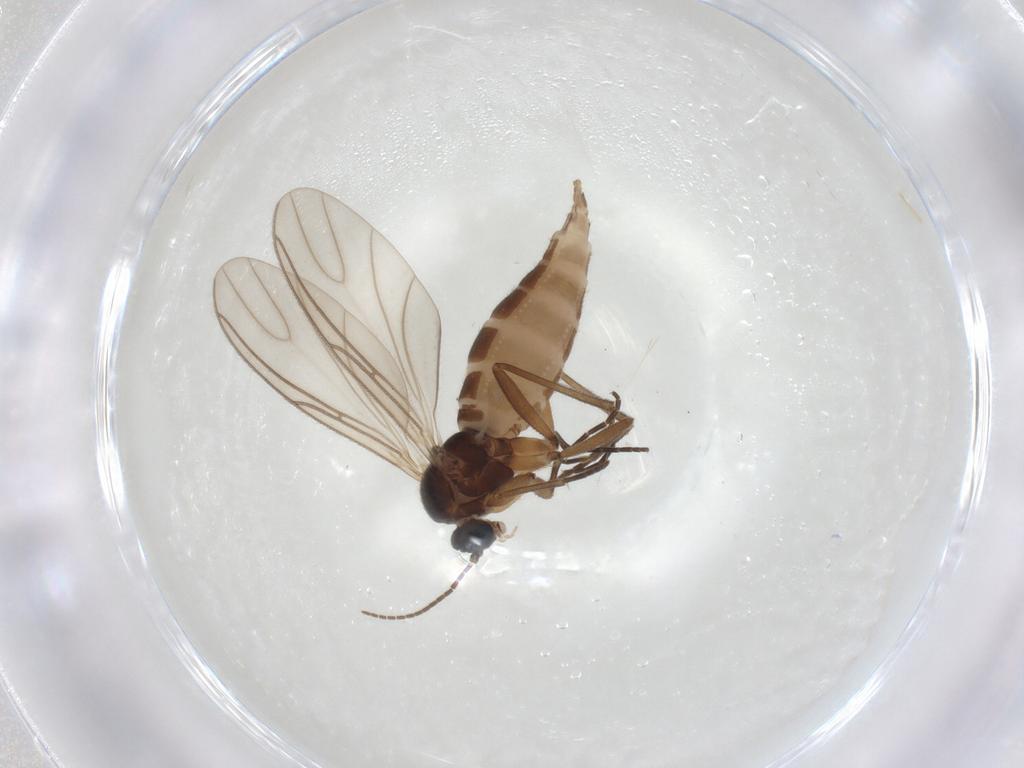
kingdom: Animalia
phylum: Arthropoda
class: Insecta
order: Diptera
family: Sciaridae
